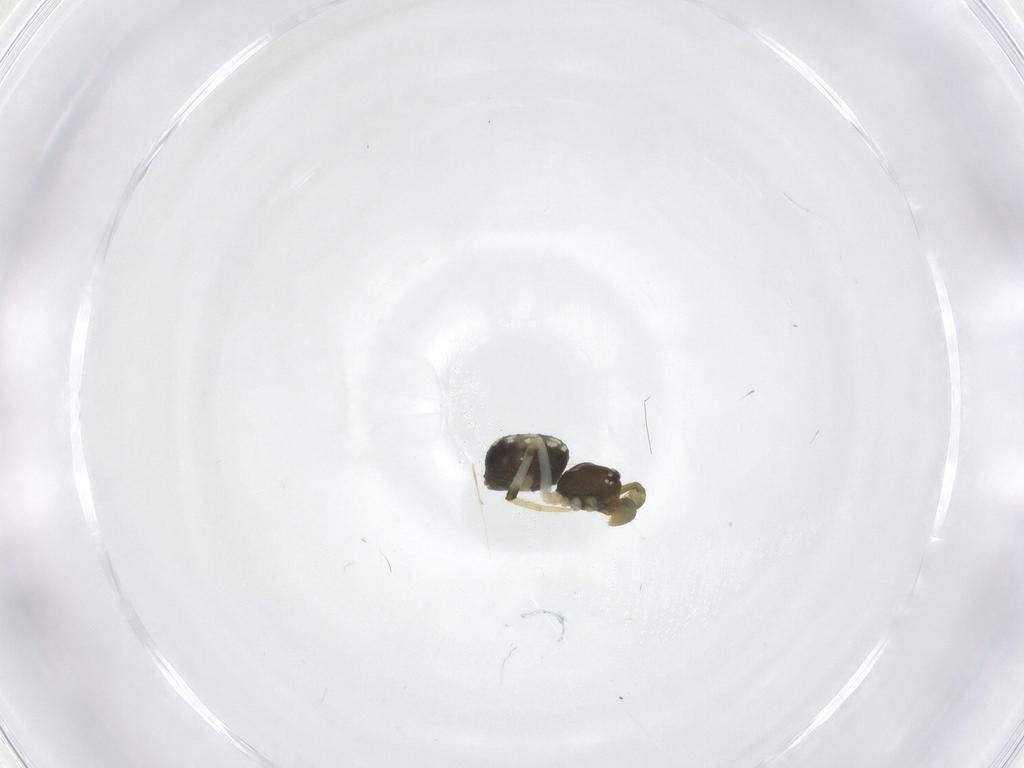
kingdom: Animalia
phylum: Arthropoda
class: Arachnida
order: Araneae
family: Theridiidae
